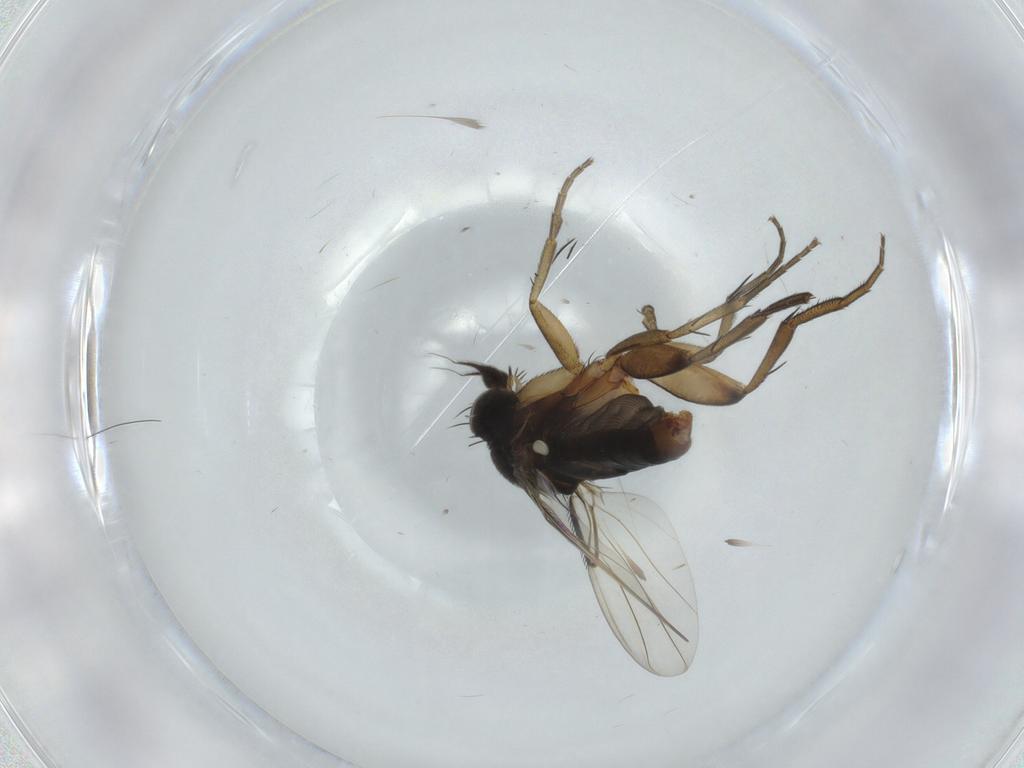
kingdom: Animalia
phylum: Arthropoda
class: Insecta
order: Diptera
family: Phoridae
